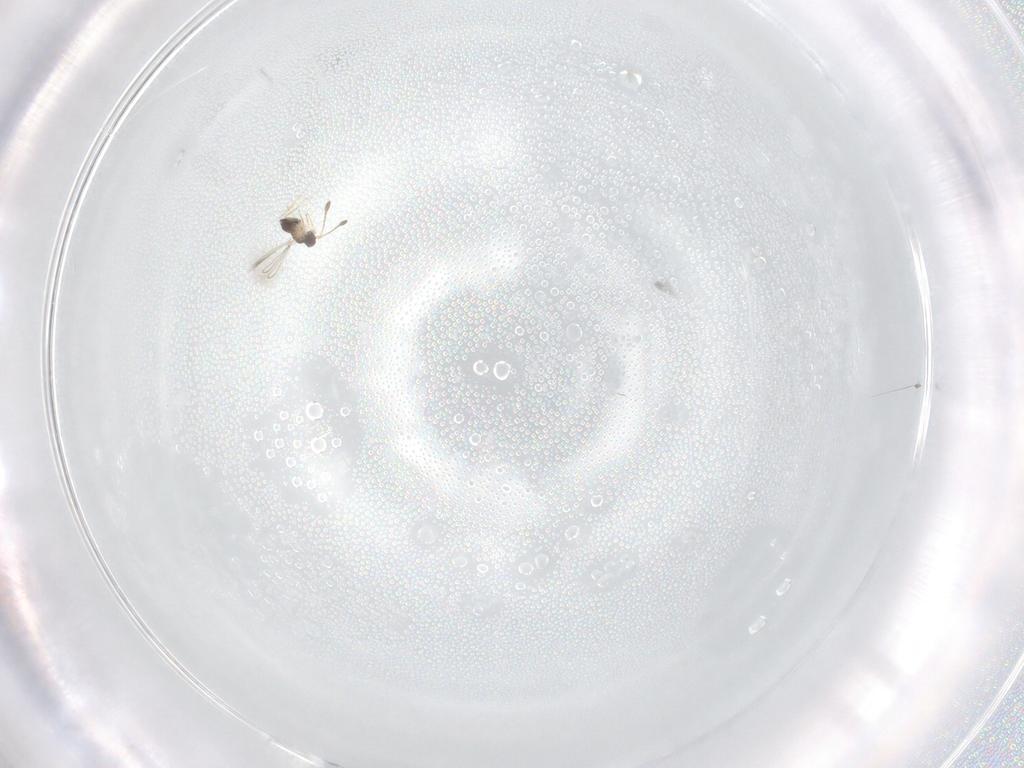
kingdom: Animalia
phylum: Arthropoda
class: Insecta
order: Hymenoptera
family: Mymaridae
